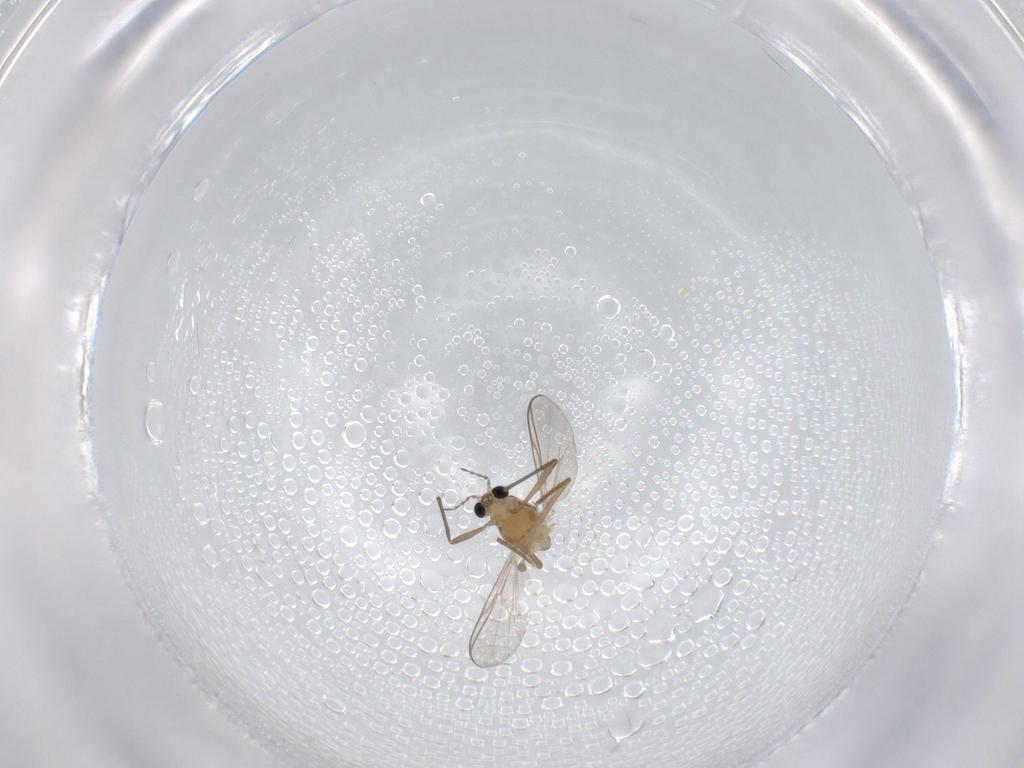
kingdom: Animalia
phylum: Arthropoda
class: Insecta
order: Diptera
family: Chironomidae
